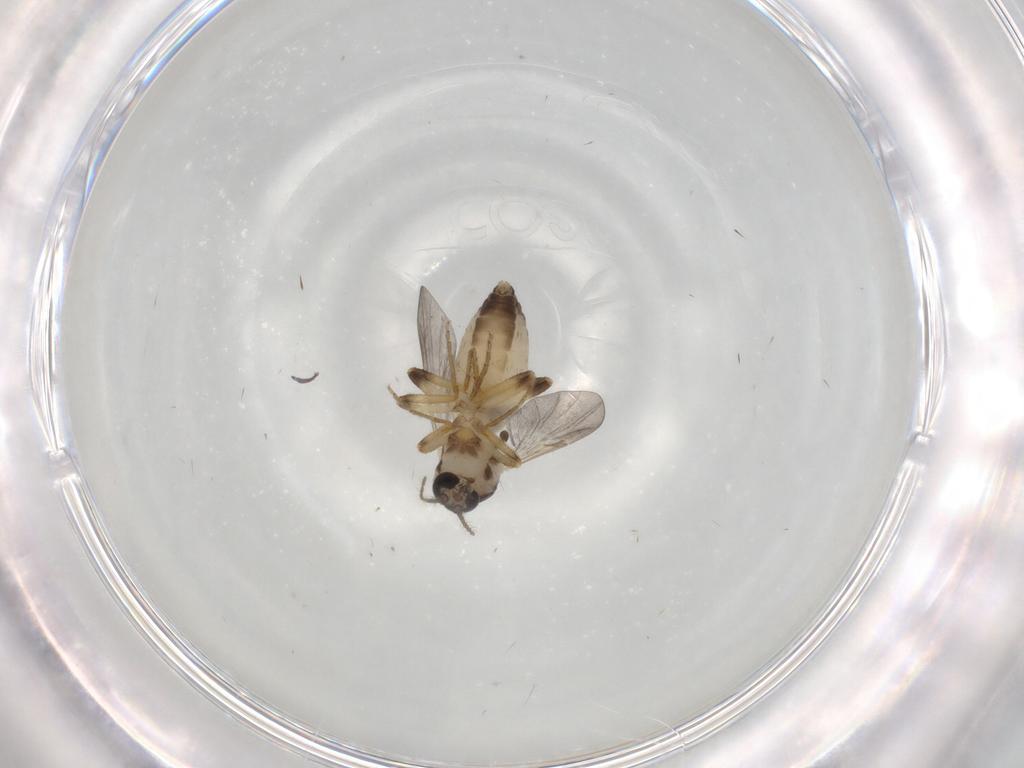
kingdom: Animalia
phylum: Arthropoda
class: Insecta
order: Diptera
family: Ceratopogonidae
